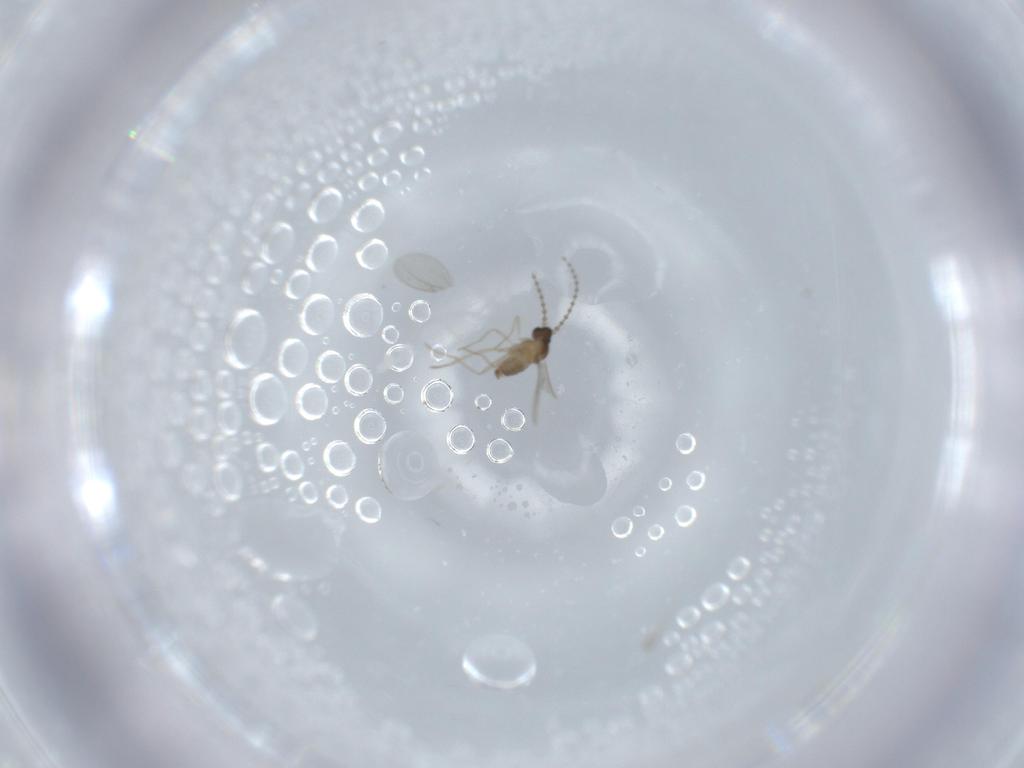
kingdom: Animalia
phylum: Arthropoda
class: Insecta
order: Diptera
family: Cecidomyiidae
